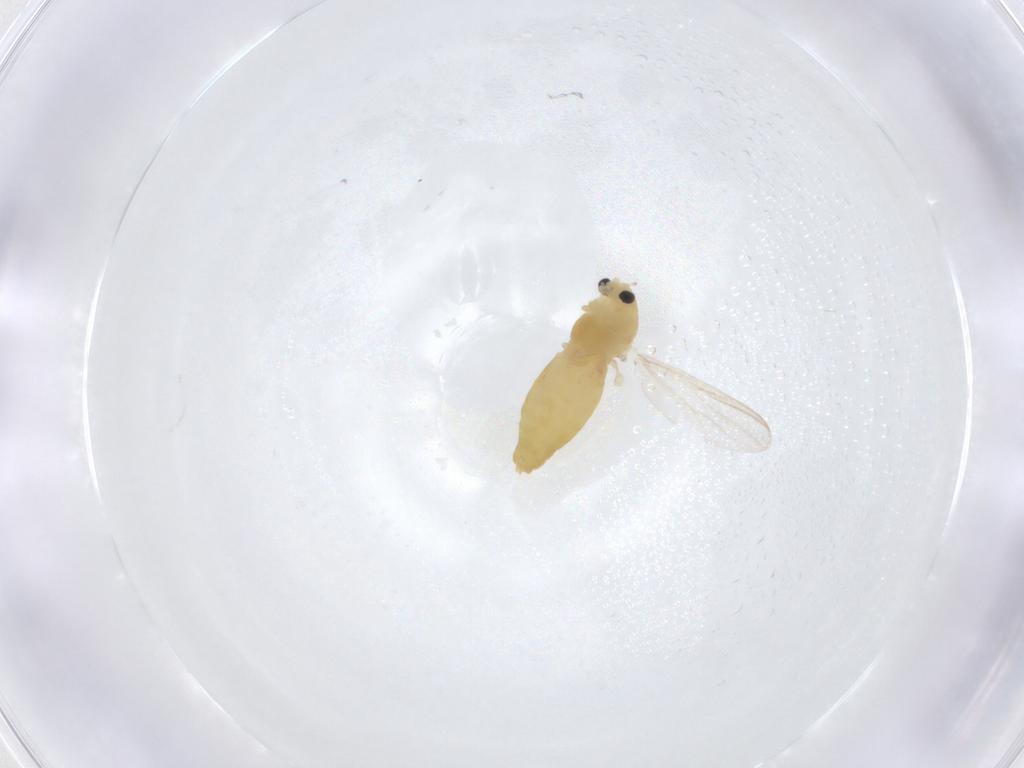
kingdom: Animalia
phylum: Arthropoda
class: Insecta
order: Diptera
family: Chironomidae
